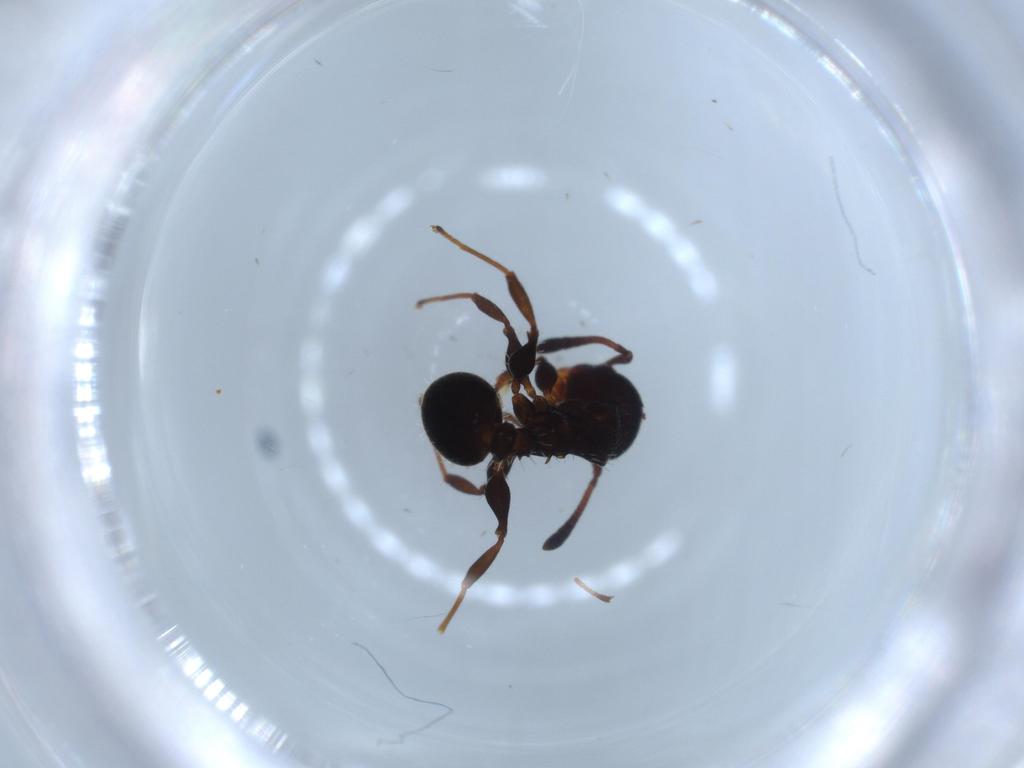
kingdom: Animalia
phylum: Arthropoda
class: Insecta
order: Hymenoptera
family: Formicidae
